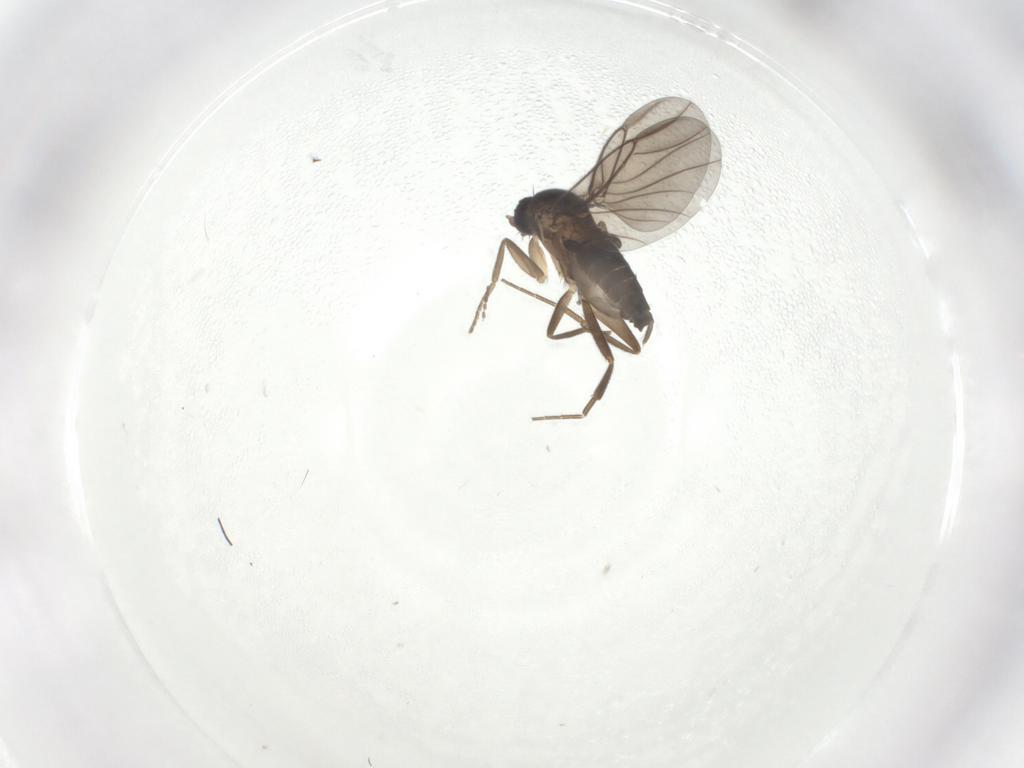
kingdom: Animalia
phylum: Arthropoda
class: Insecta
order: Diptera
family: Phoridae
